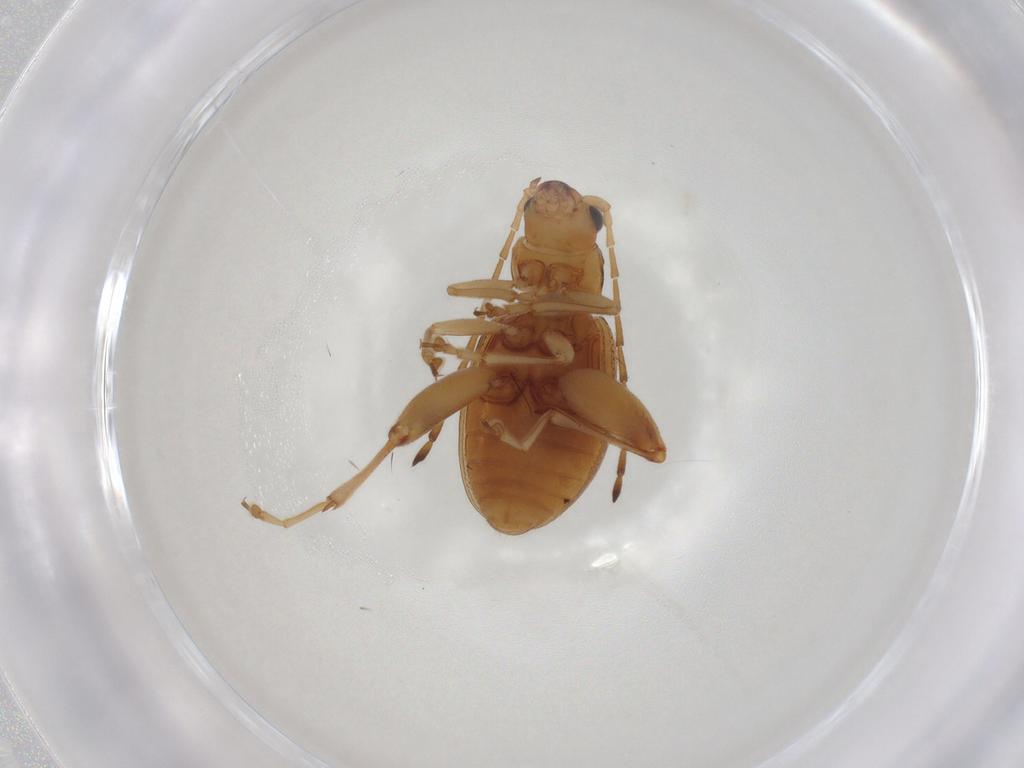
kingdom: Animalia
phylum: Arthropoda
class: Insecta
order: Coleoptera
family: Chrysomelidae
